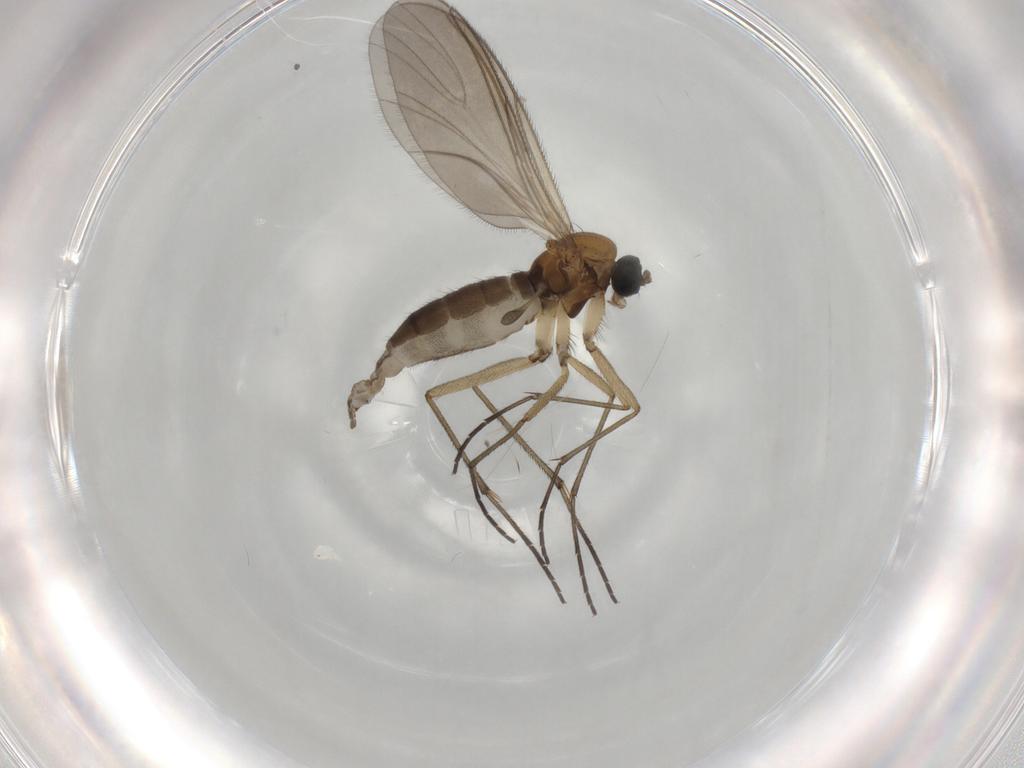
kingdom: Animalia
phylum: Arthropoda
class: Insecta
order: Diptera
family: Sciaridae
